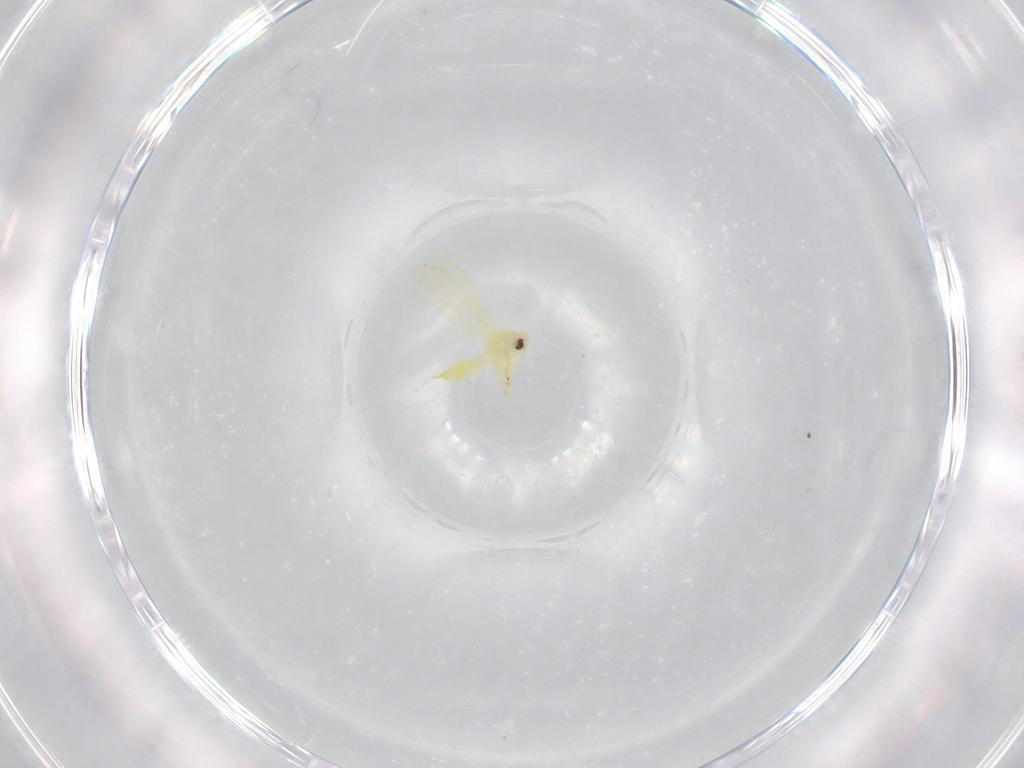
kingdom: Animalia
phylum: Arthropoda
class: Insecta
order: Hemiptera
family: Aleyrodidae
